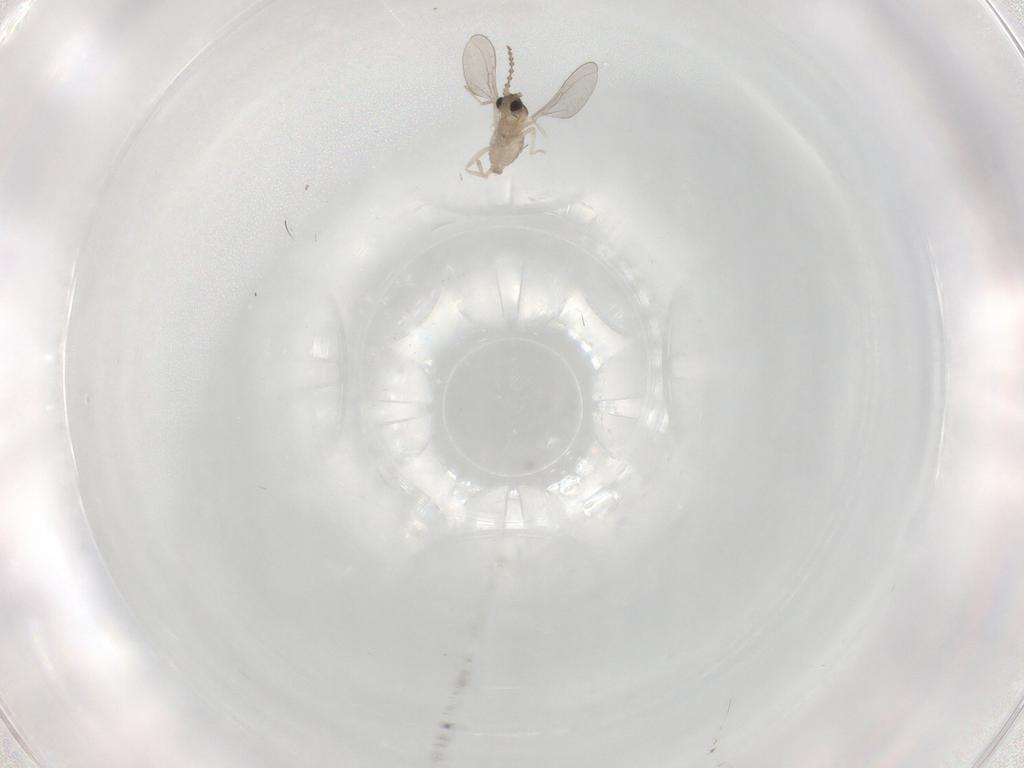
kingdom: Animalia
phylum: Arthropoda
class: Insecta
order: Diptera
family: Cecidomyiidae
